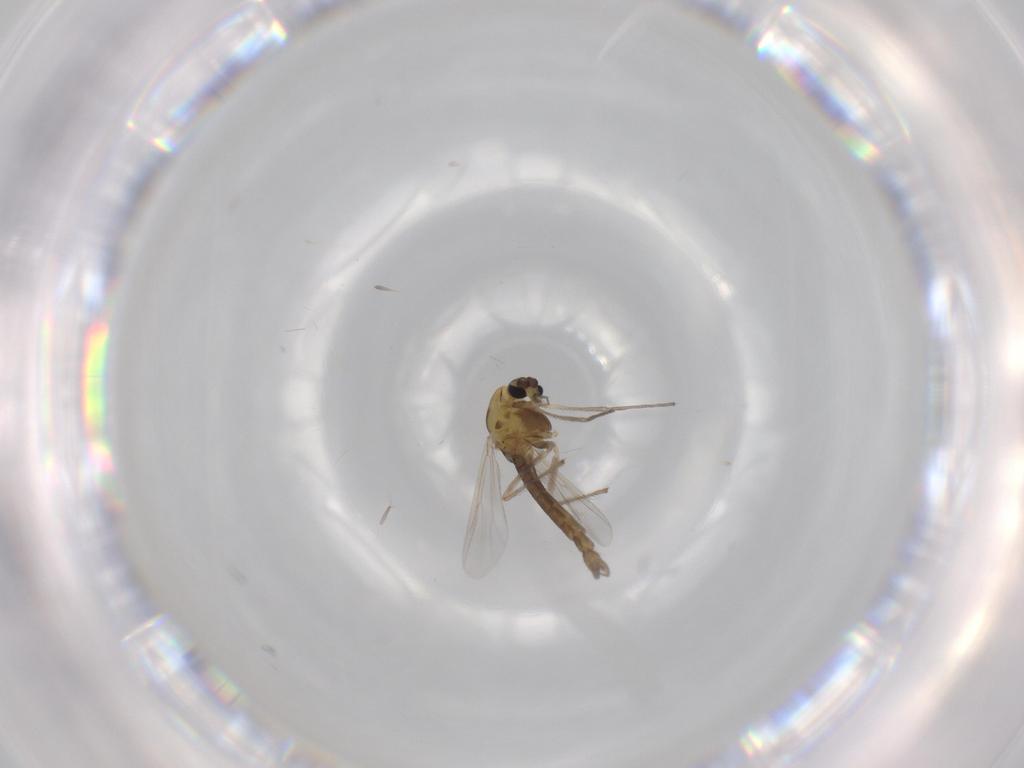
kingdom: Animalia
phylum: Arthropoda
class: Insecta
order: Diptera
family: Chironomidae
